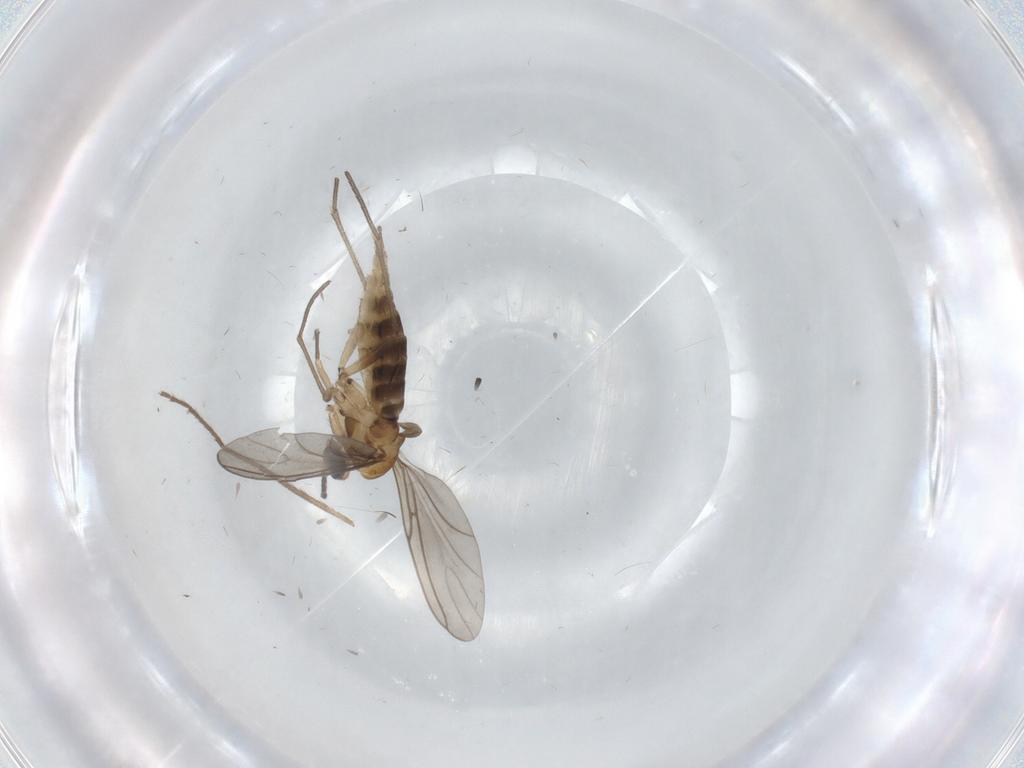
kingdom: Animalia
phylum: Arthropoda
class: Insecta
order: Diptera
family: Sciaridae
